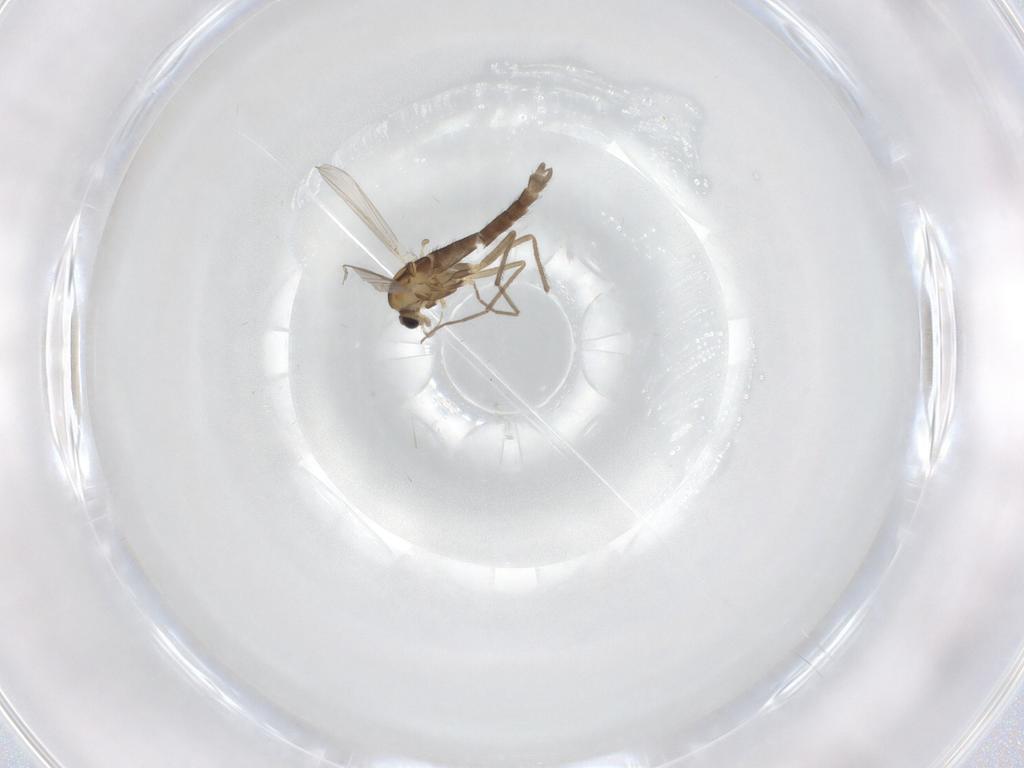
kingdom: Animalia
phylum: Arthropoda
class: Insecta
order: Diptera
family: Chironomidae
